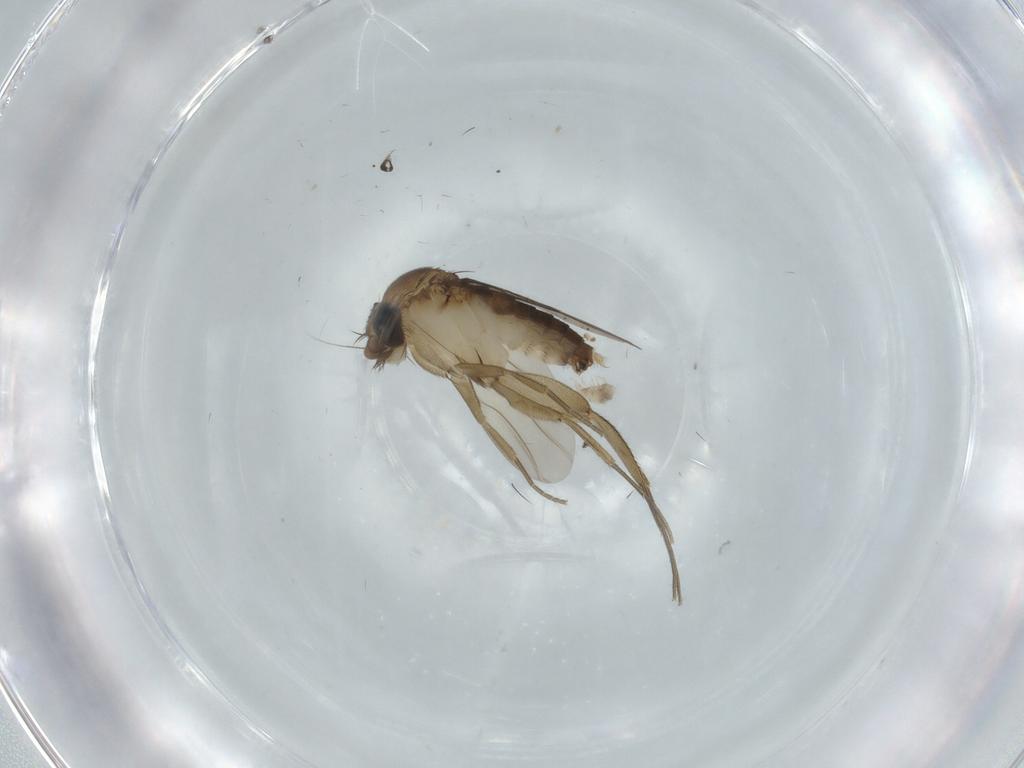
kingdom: Animalia
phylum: Arthropoda
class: Insecta
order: Diptera
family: Phoridae
